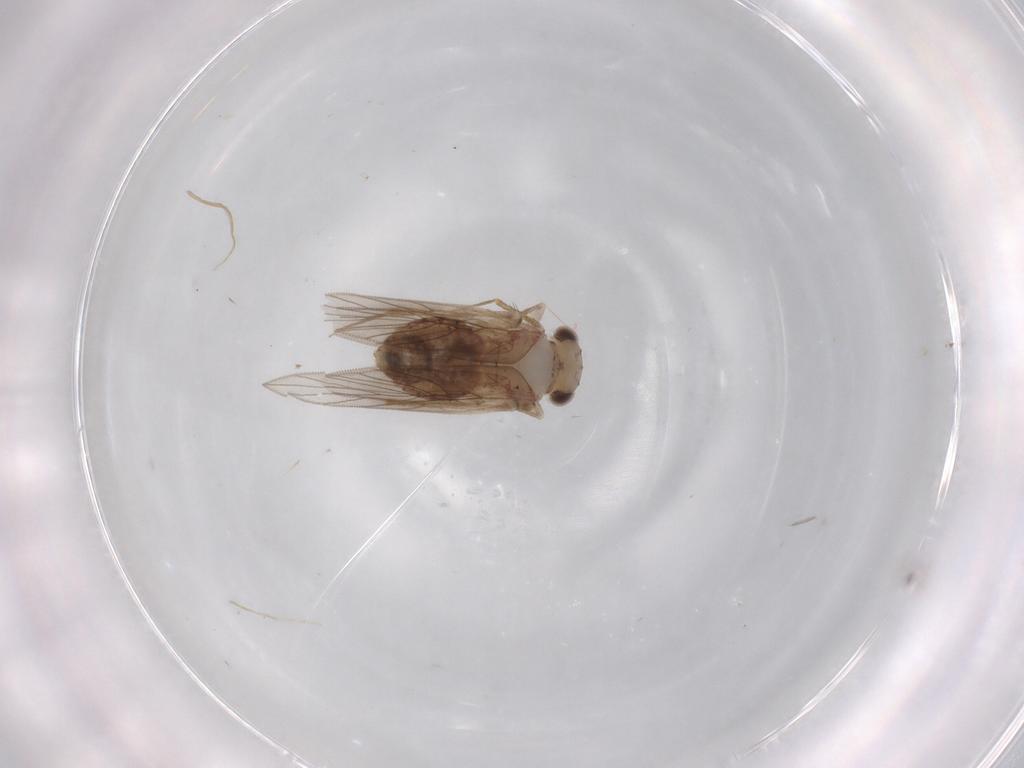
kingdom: Animalia
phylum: Arthropoda
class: Insecta
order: Psocodea
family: Lepidopsocidae
